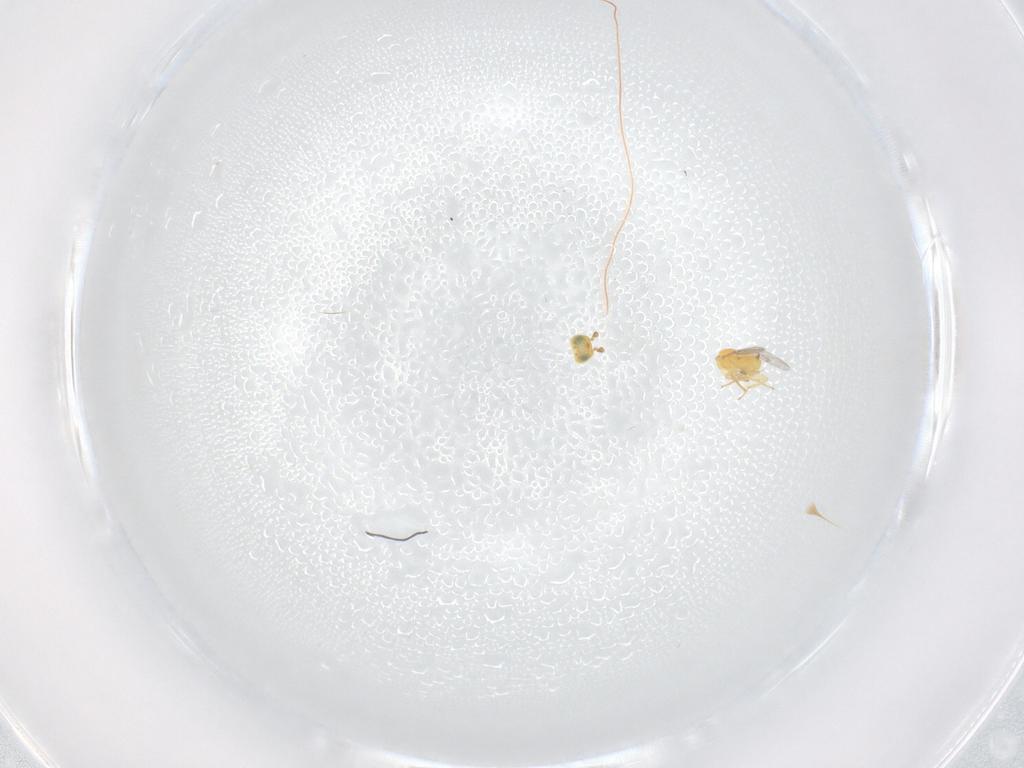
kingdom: Animalia
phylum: Arthropoda
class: Insecta
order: Hymenoptera
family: Encyrtidae
